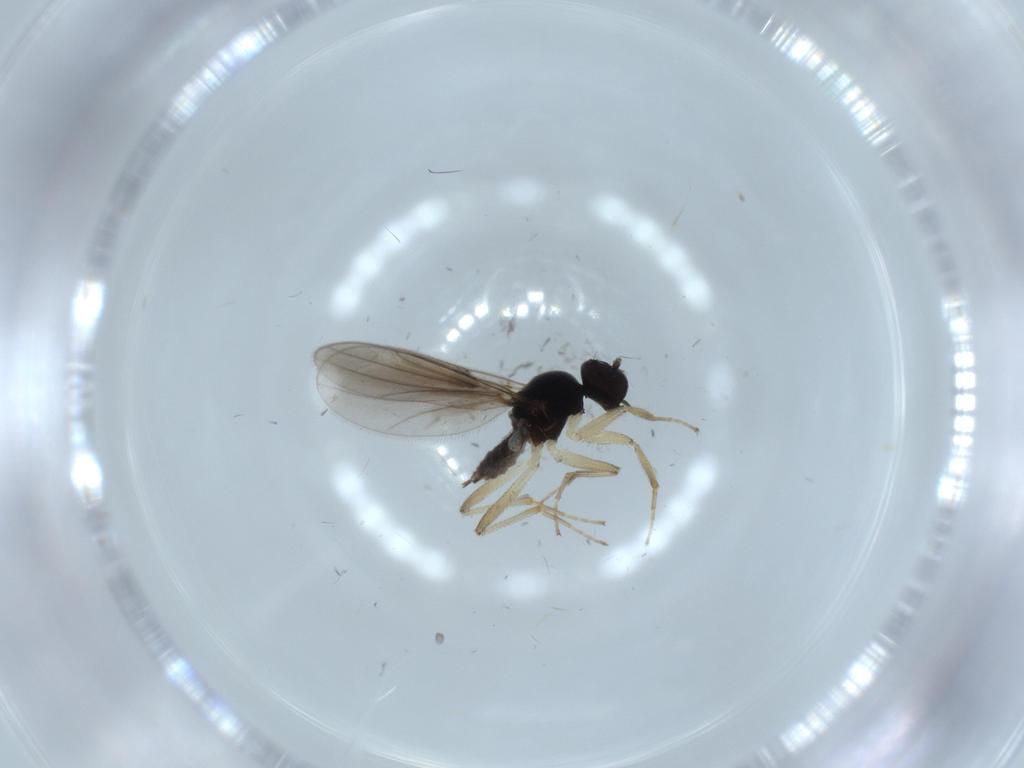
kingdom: Animalia
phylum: Arthropoda
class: Insecta
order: Diptera
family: Hybotidae
